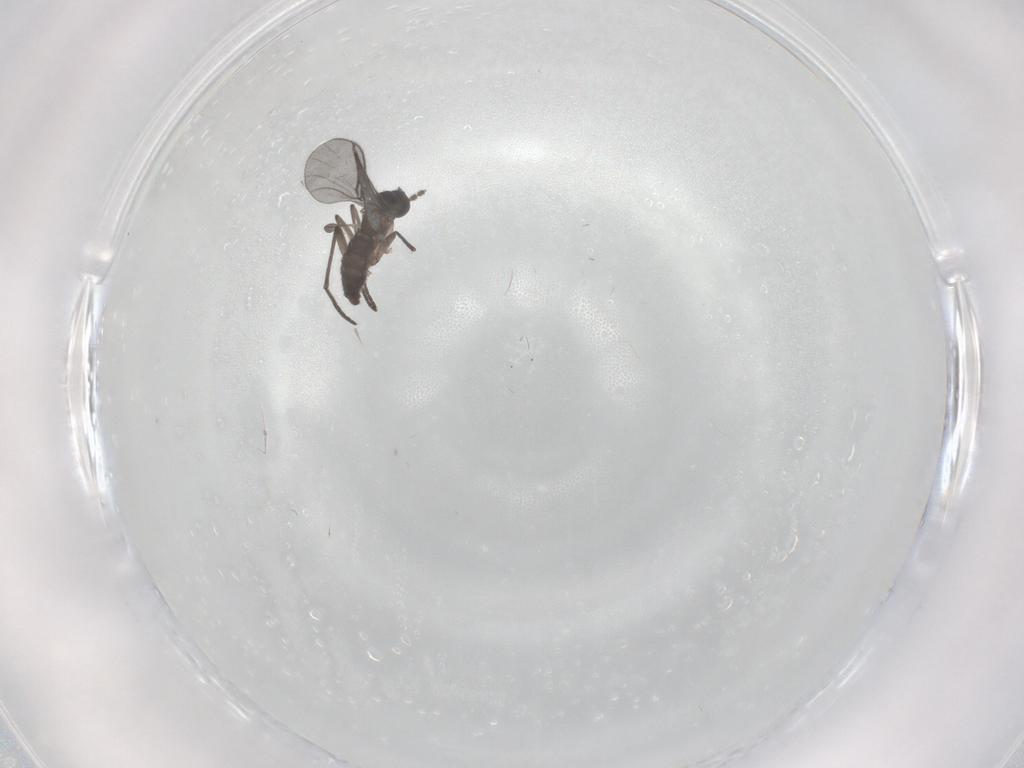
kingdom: Animalia
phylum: Arthropoda
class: Insecta
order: Diptera
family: Dolichopodidae
